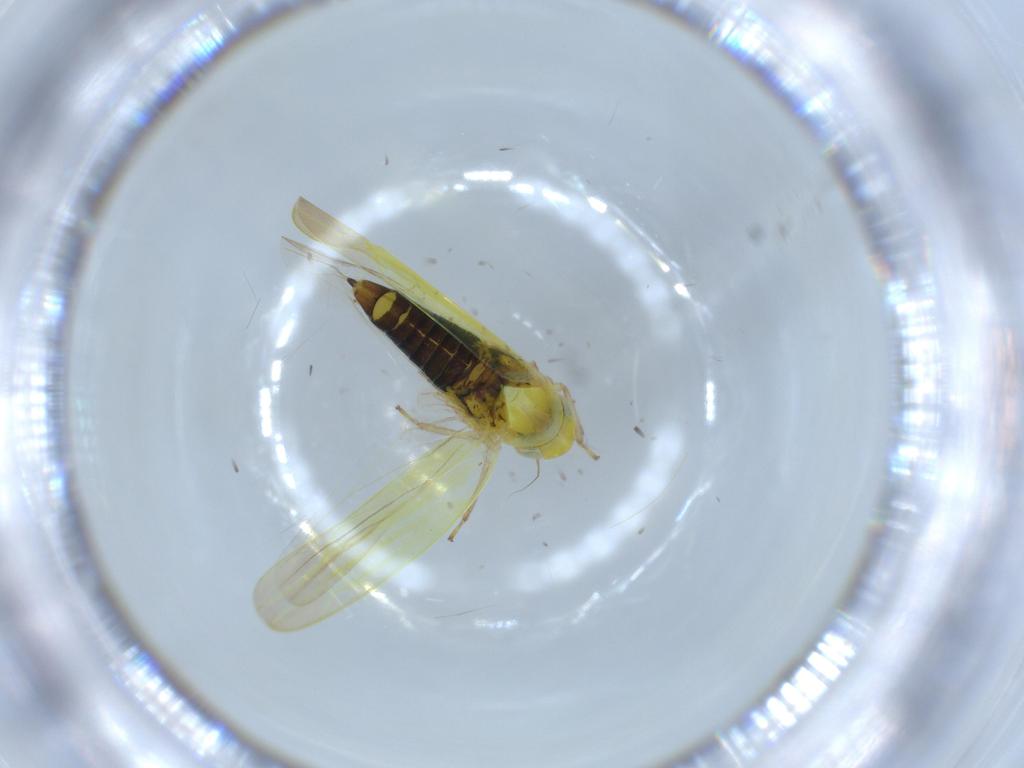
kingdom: Animalia
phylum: Arthropoda
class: Insecta
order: Hemiptera
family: Cicadellidae
